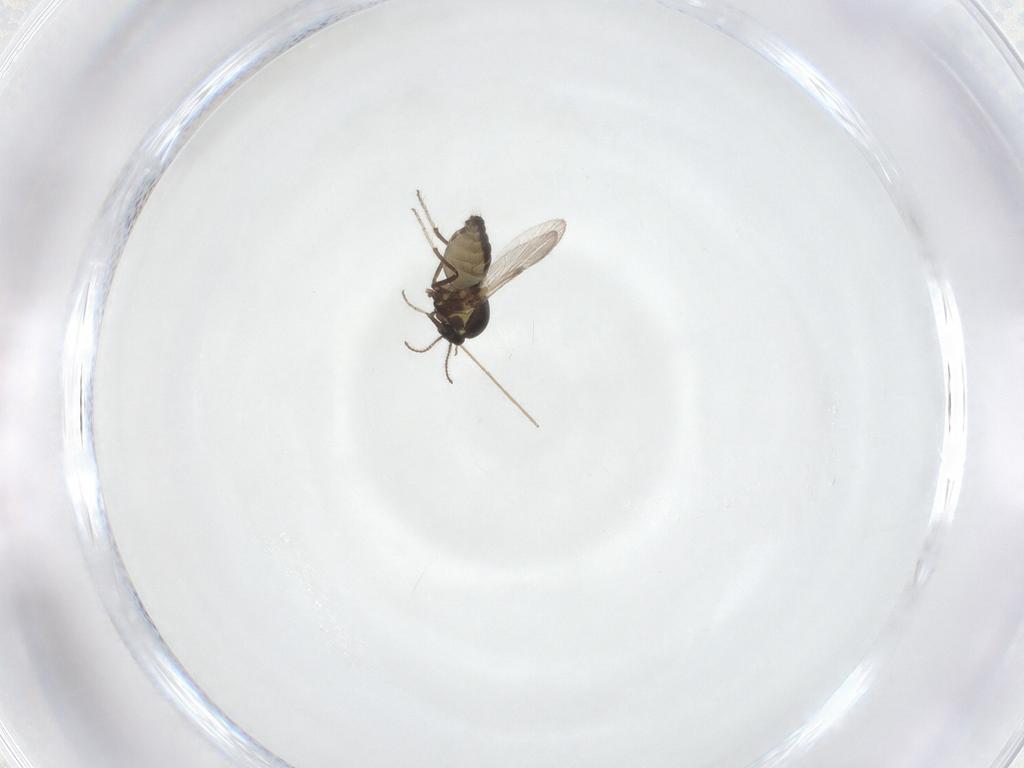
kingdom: Animalia
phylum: Arthropoda
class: Insecta
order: Diptera
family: Ceratopogonidae
